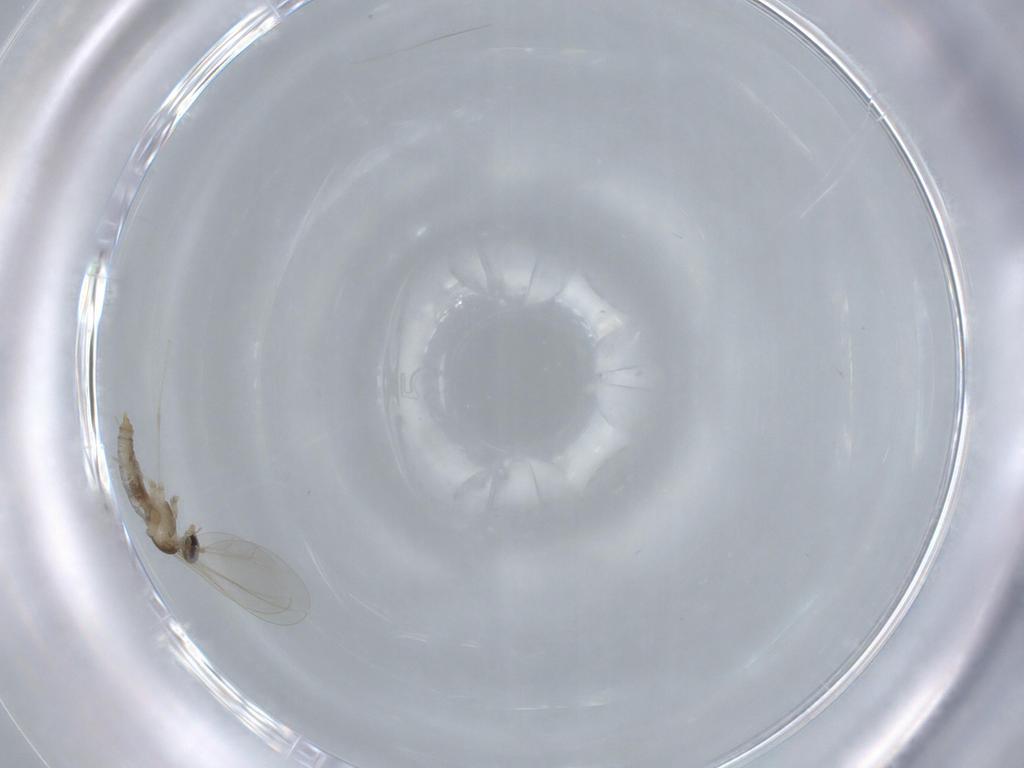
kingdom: Animalia
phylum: Arthropoda
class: Insecta
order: Diptera
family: Cecidomyiidae
